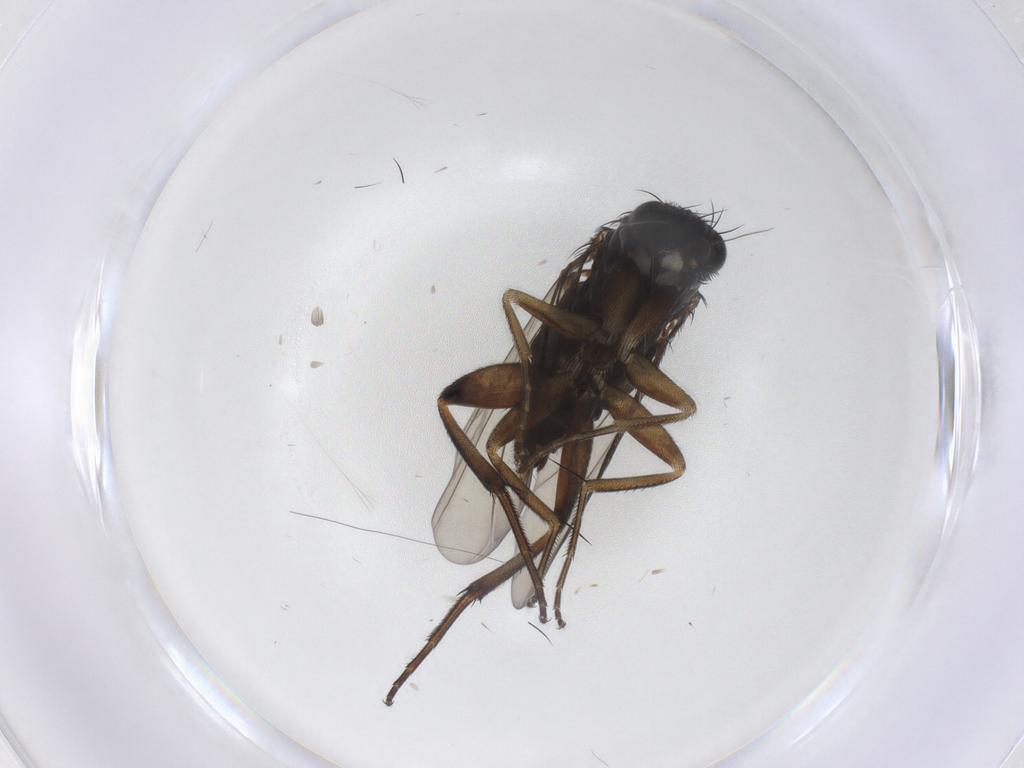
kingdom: Animalia
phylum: Arthropoda
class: Insecta
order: Diptera
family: Phoridae
